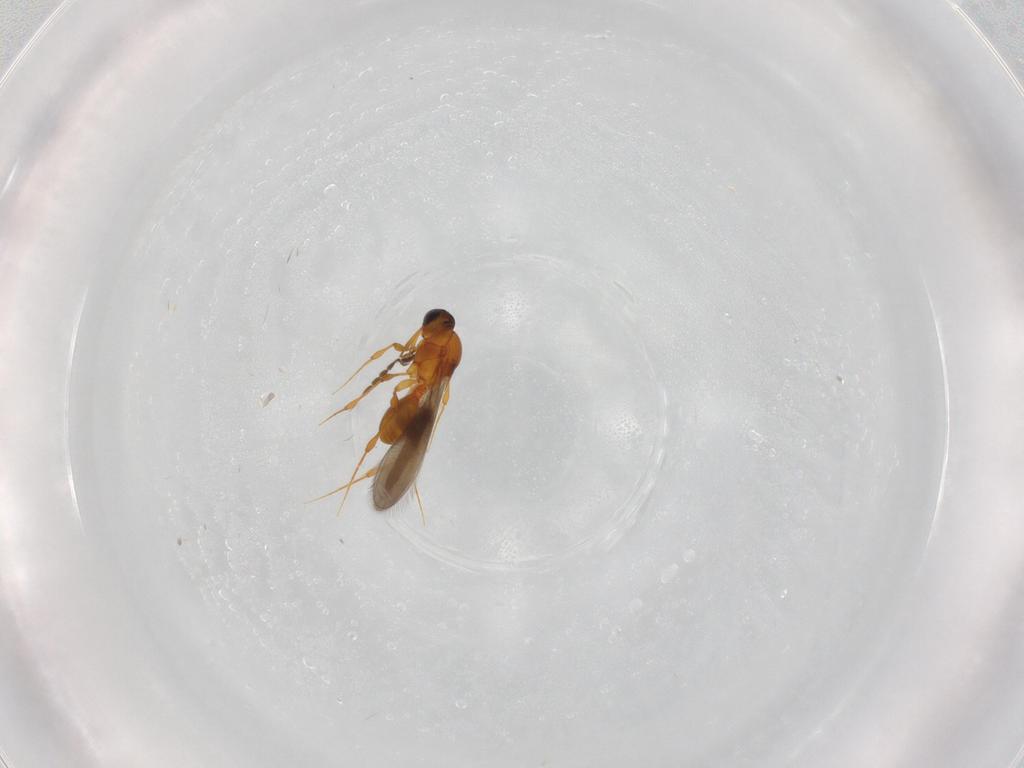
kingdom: Animalia
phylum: Arthropoda
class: Insecta
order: Hymenoptera
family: Platygastridae
